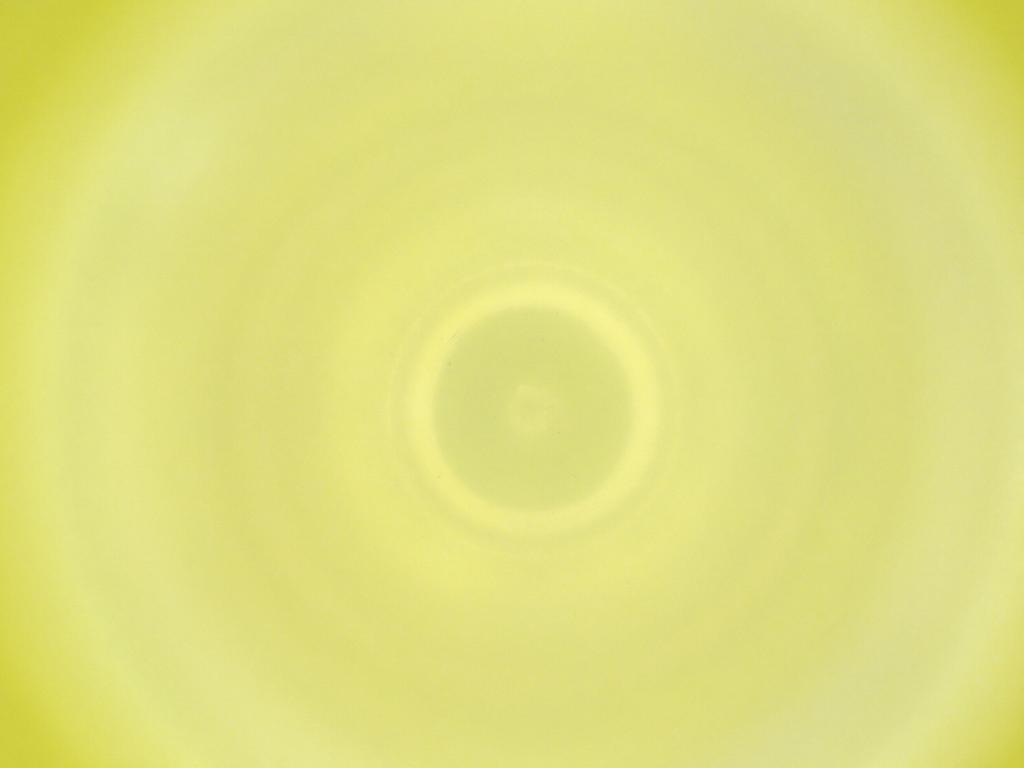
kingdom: Animalia
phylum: Arthropoda
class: Insecta
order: Diptera
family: Cecidomyiidae
